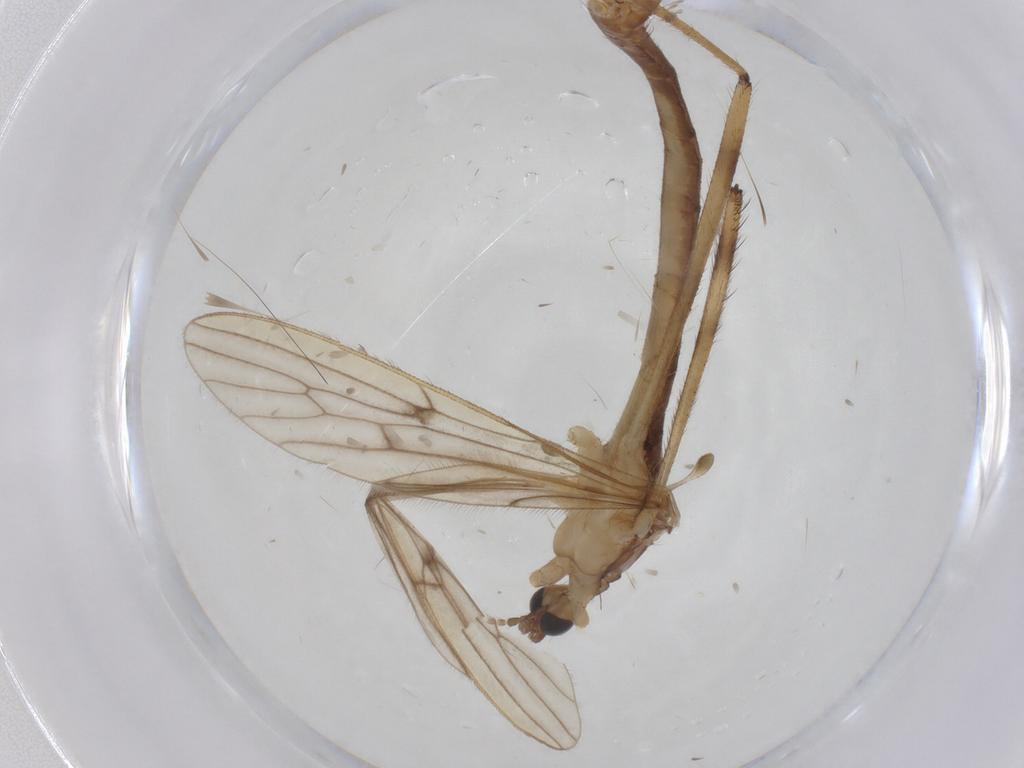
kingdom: Animalia
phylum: Arthropoda
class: Insecta
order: Diptera
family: Limoniidae
